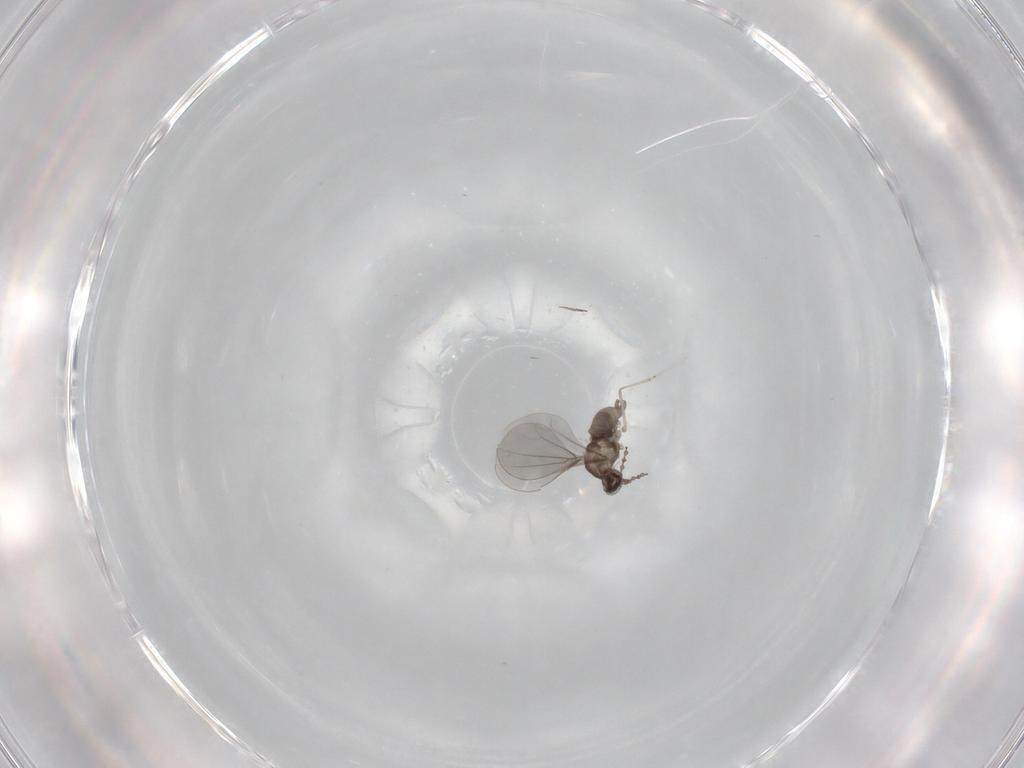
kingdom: Animalia
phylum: Arthropoda
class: Insecta
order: Diptera
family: Cecidomyiidae
